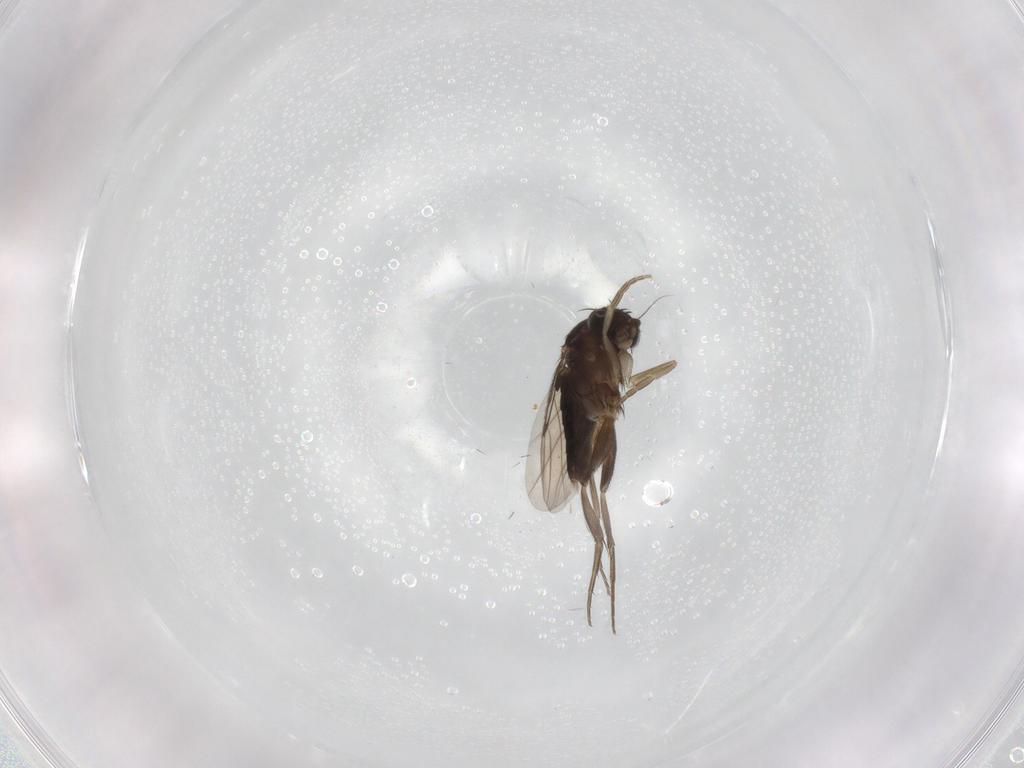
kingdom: Animalia
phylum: Arthropoda
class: Insecta
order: Diptera
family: Phoridae
